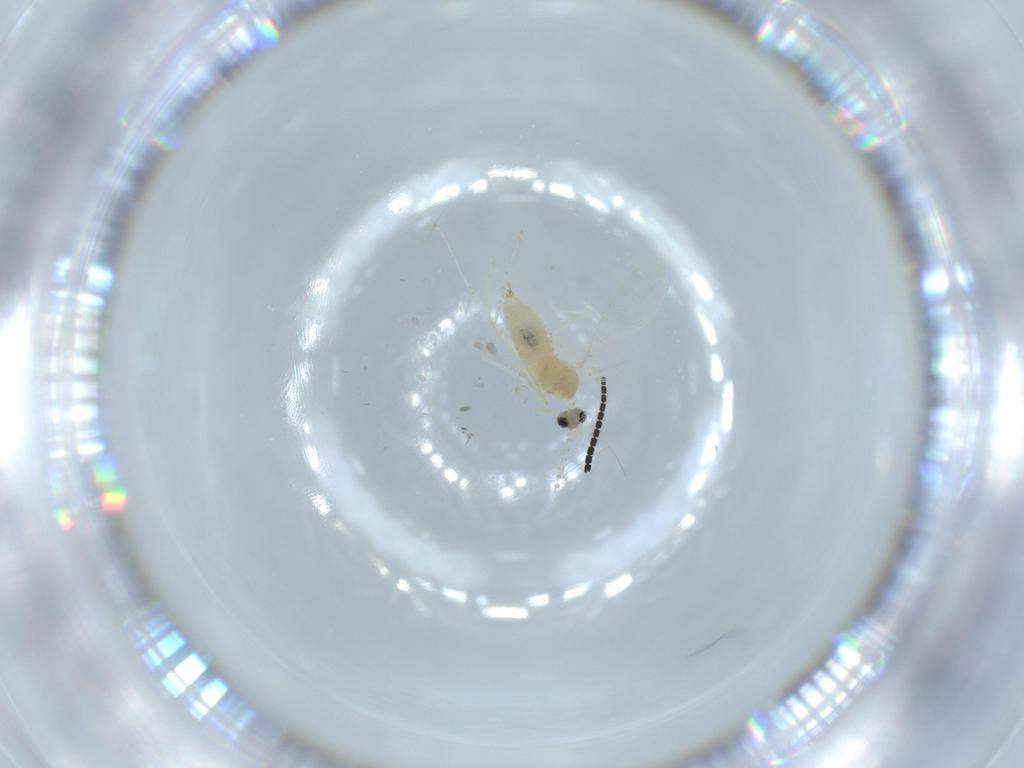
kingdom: Animalia
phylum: Arthropoda
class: Insecta
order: Diptera
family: Cecidomyiidae
